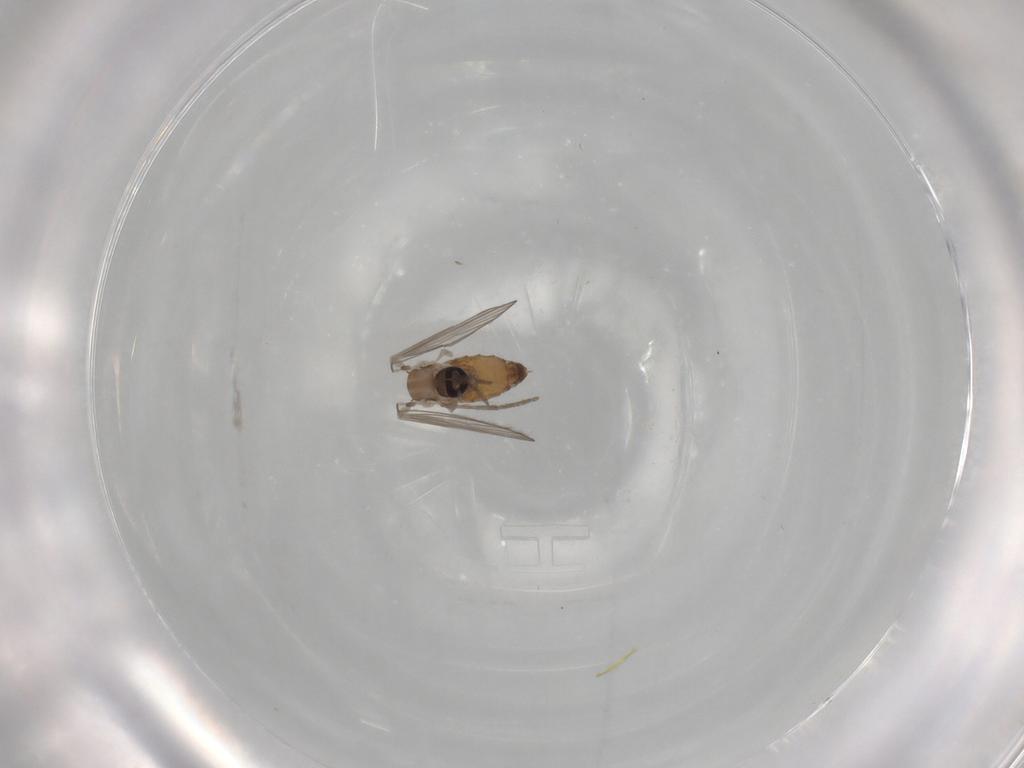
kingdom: Animalia
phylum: Arthropoda
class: Insecta
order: Diptera
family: Psychodidae
